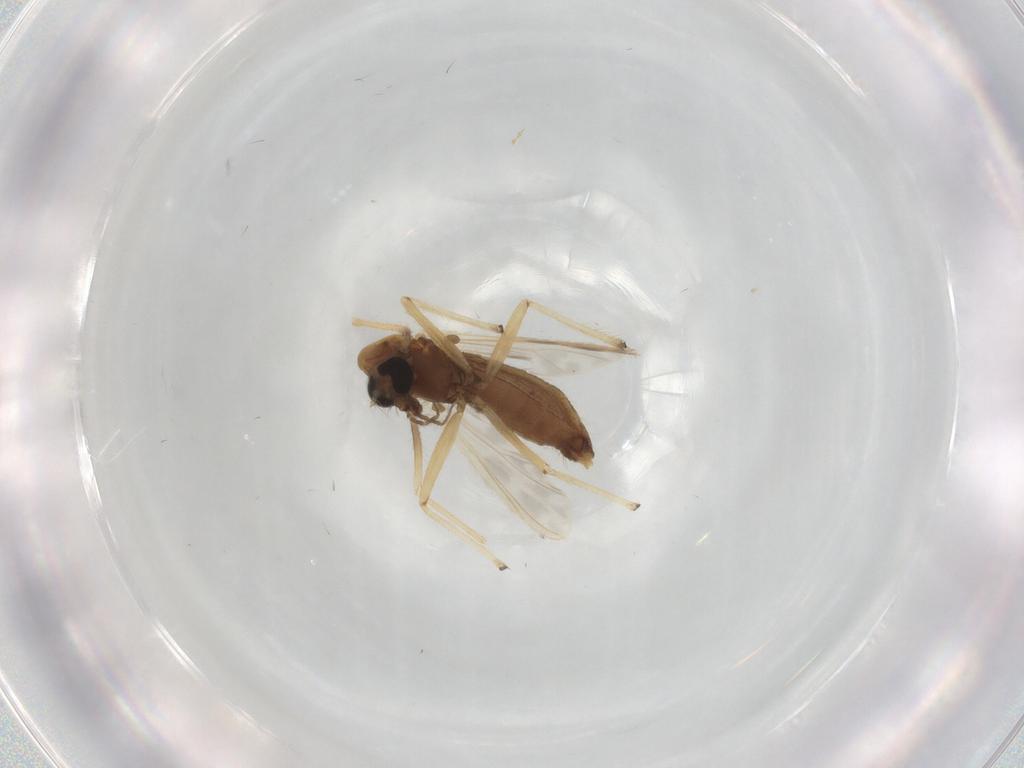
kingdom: Animalia
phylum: Arthropoda
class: Insecta
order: Diptera
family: Chironomidae
